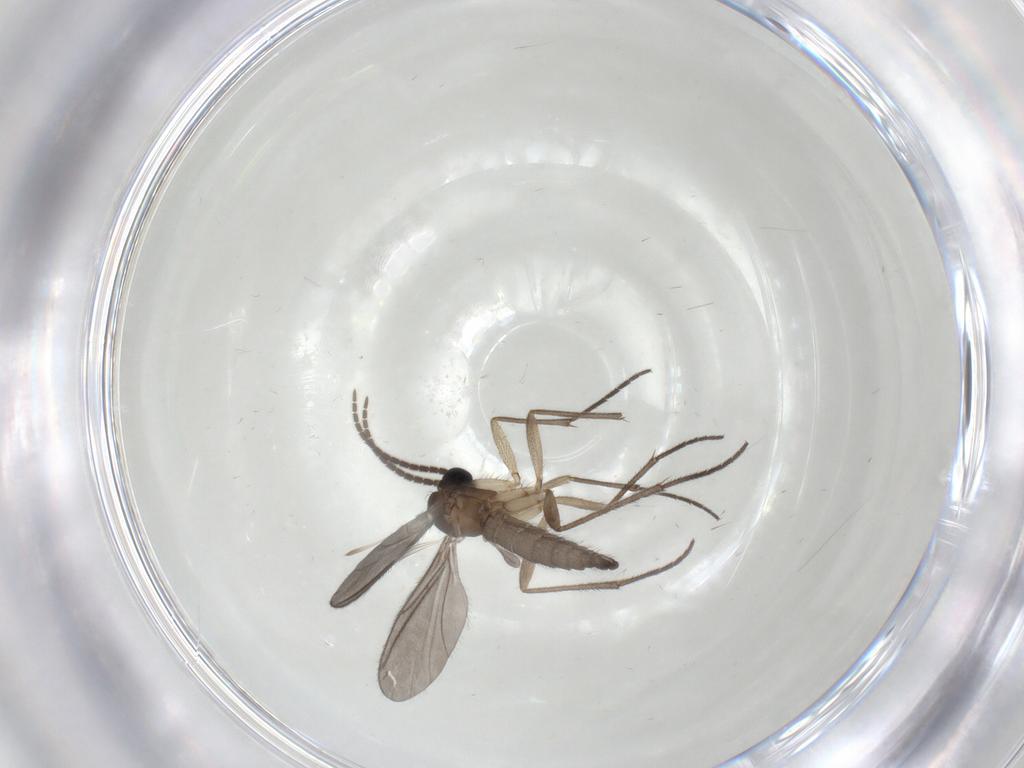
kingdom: Animalia
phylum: Arthropoda
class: Insecta
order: Diptera
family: Sciaridae
